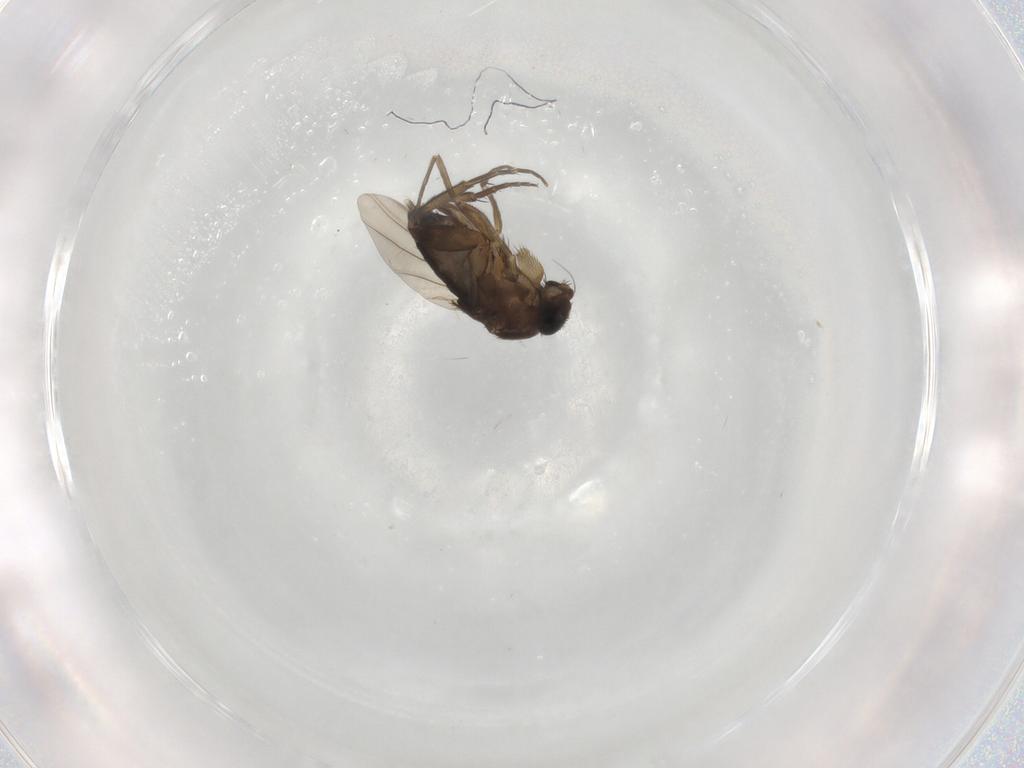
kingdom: Animalia
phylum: Arthropoda
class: Insecta
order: Diptera
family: Bibionidae
